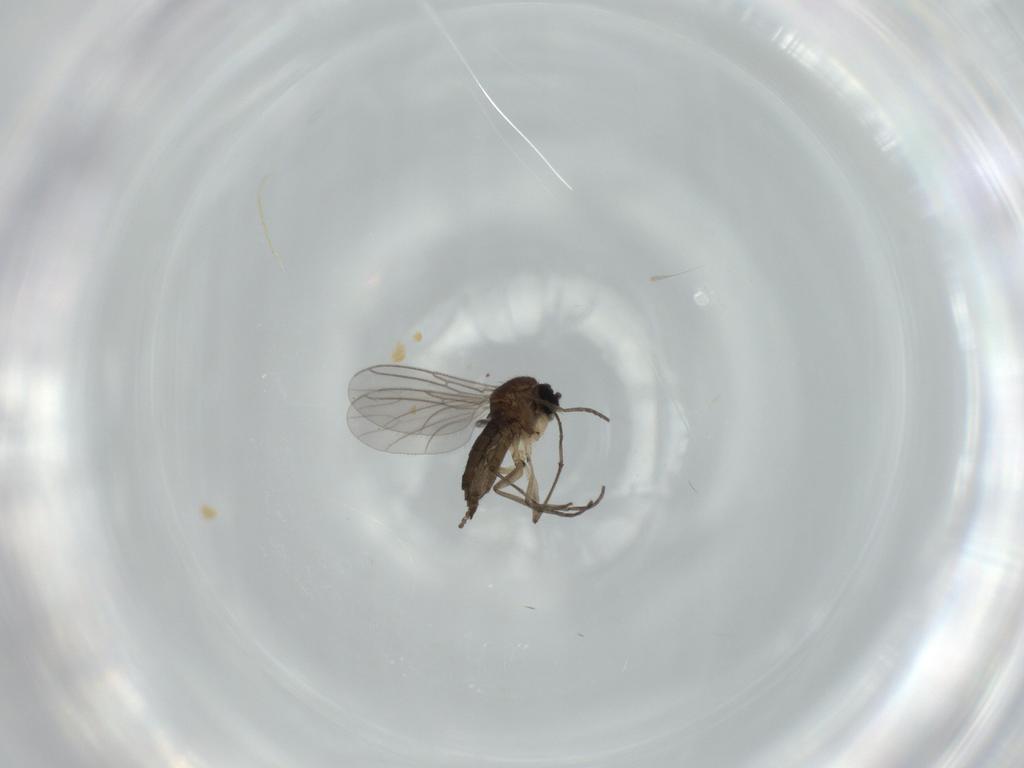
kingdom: Animalia
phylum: Arthropoda
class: Insecta
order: Diptera
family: Sciaridae
